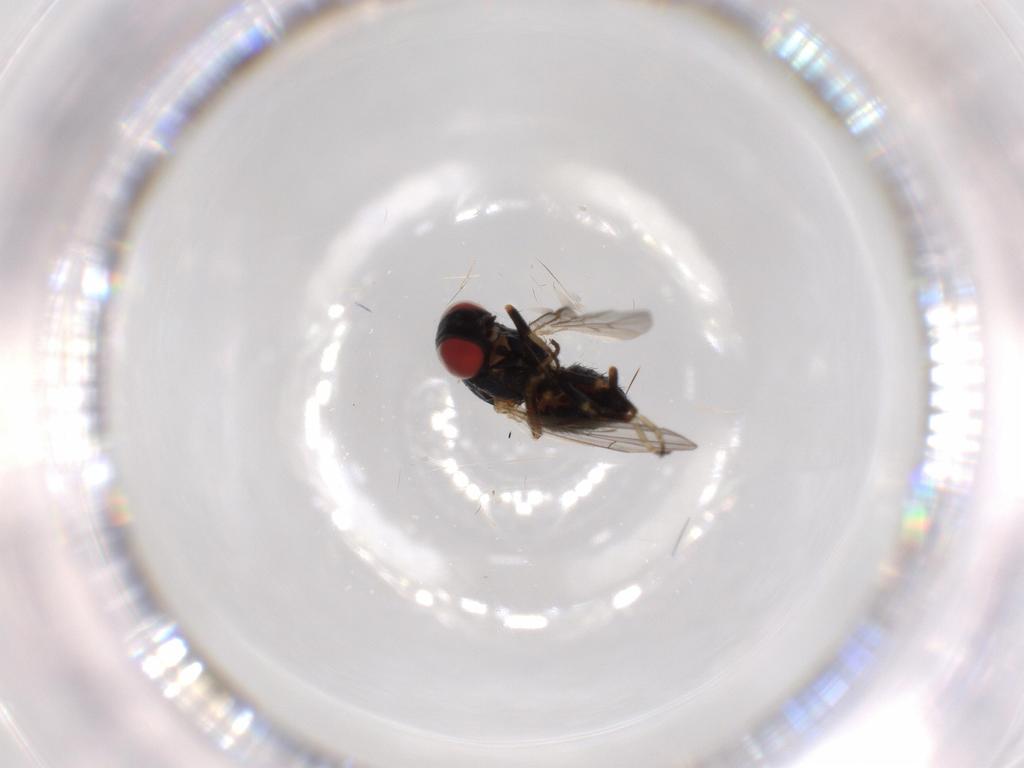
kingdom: Animalia
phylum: Arthropoda
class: Insecta
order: Diptera
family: Chamaemyiidae
